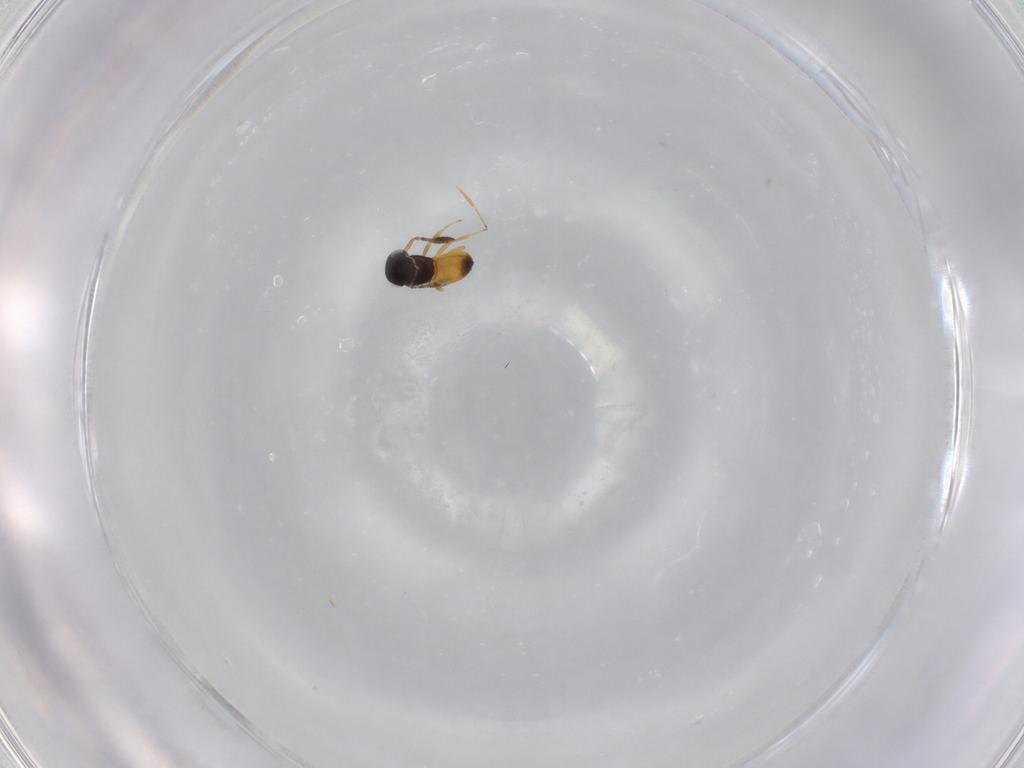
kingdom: Animalia
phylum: Arthropoda
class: Insecta
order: Hymenoptera
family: Scelionidae
